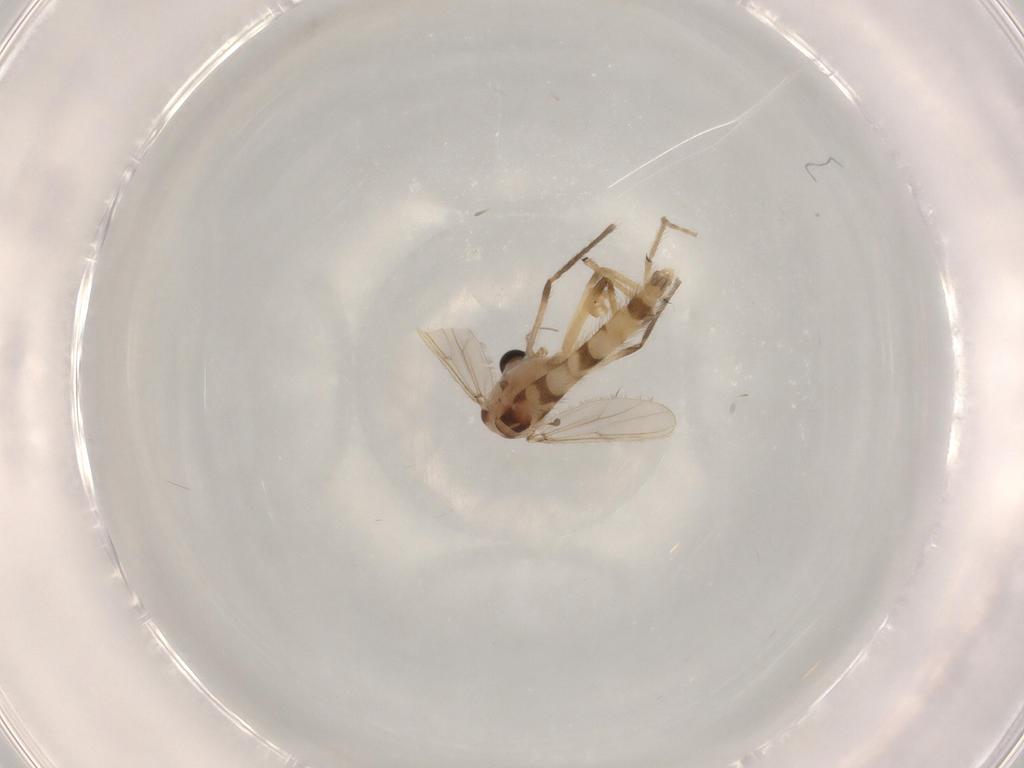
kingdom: Animalia
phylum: Arthropoda
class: Insecta
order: Diptera
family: Chironomidae
